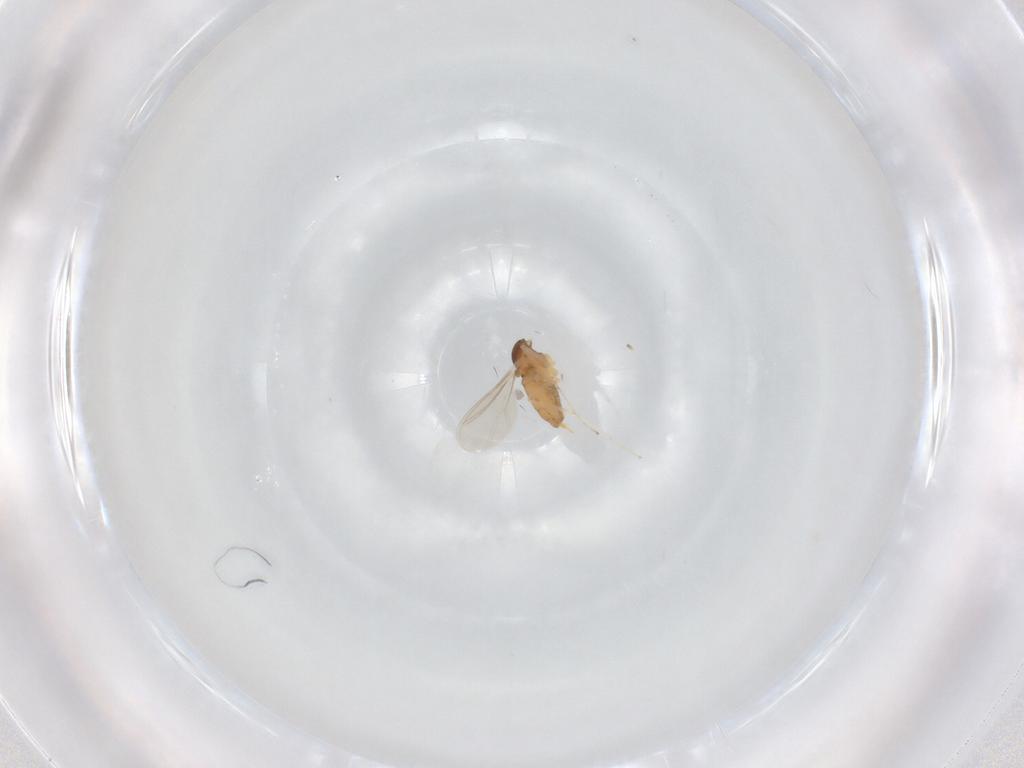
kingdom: Animalia
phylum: Arthropoda
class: Insecta
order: Diptera
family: Cecidomyiidae
